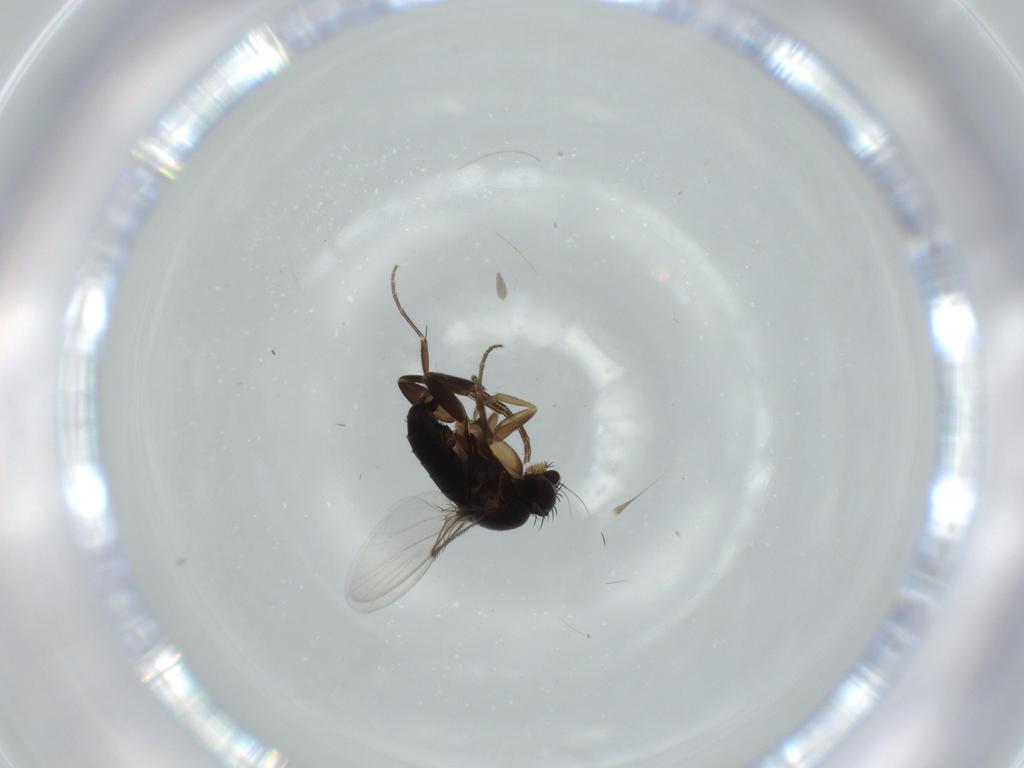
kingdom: Animalia
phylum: Arthropoda
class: Insecta
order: Diptera
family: Phoridae
